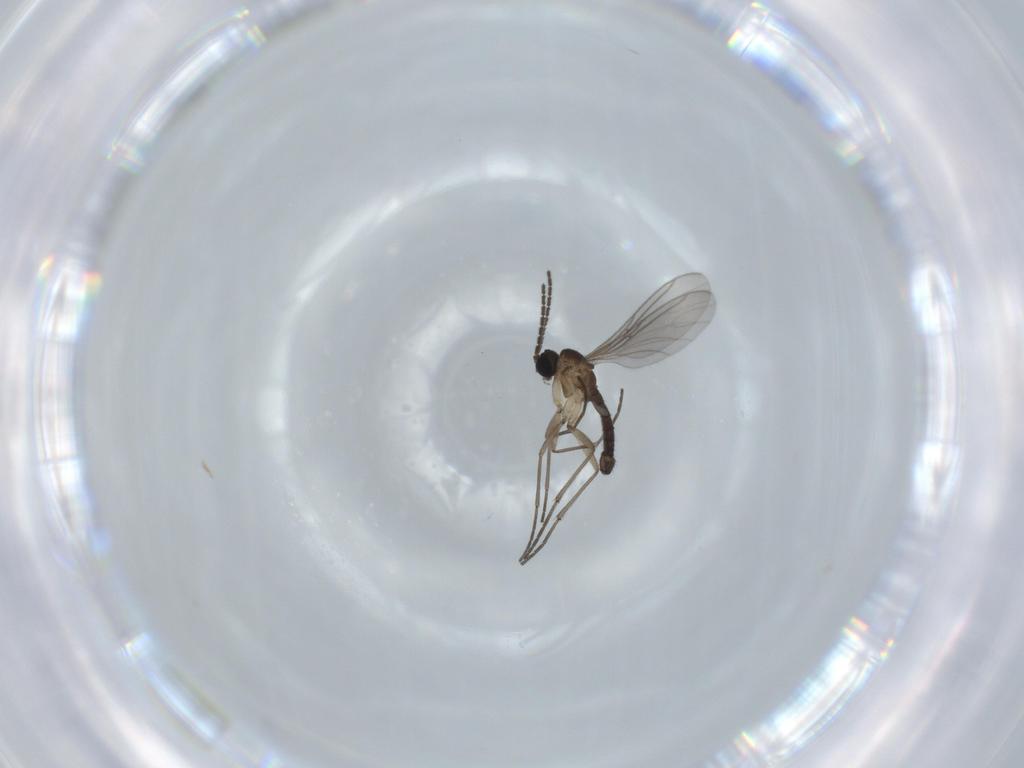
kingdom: Animalia
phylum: Arthropoda
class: Insecta
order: Diptera
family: Sciaridae
